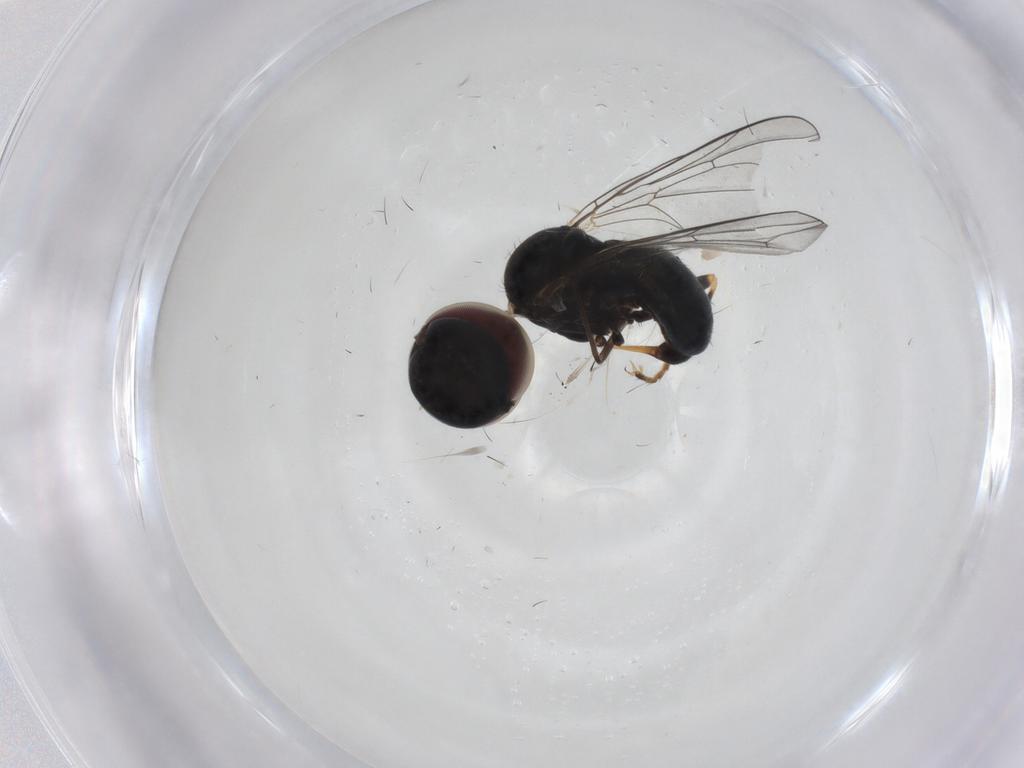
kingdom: Animalia
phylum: Arthropoda
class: Insecta
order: Diptera
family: Pipunculidae
